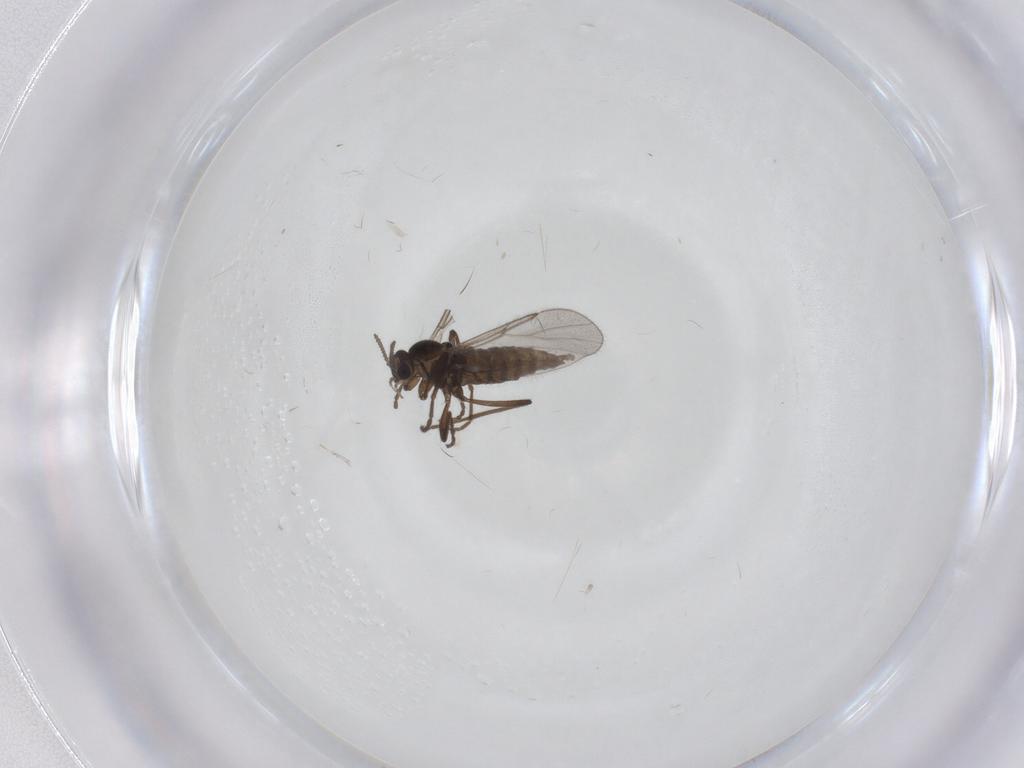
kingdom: Animalia
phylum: Arthropoda
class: Insecta
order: Diptera
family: Cecidomyiidae
